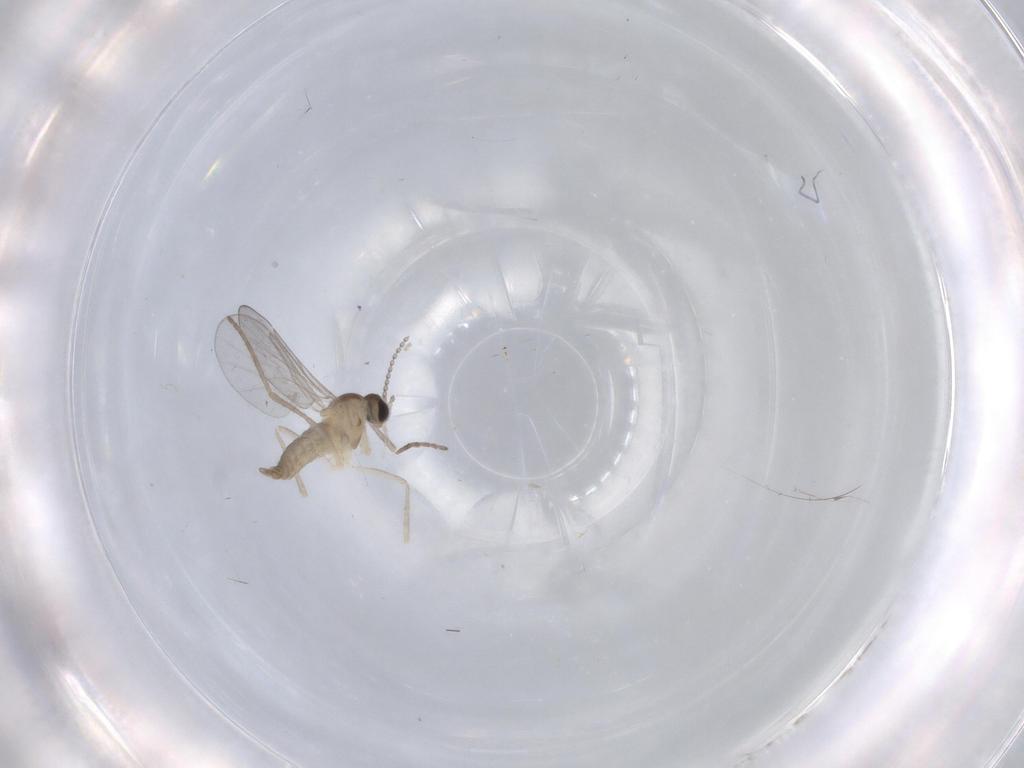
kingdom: Animalia
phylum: Arthropoda
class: Insecta
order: Diptera
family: Cecidomyiidae
